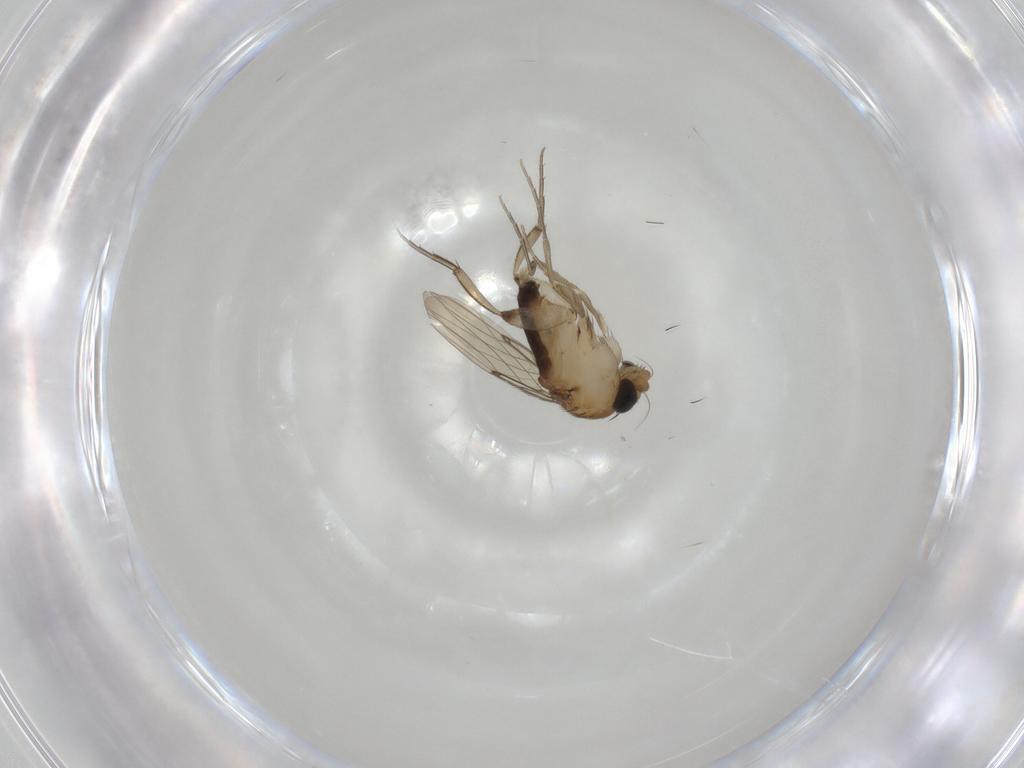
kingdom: Animalia
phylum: Arthropoda
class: Insecta
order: Diptera
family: Phoridae
